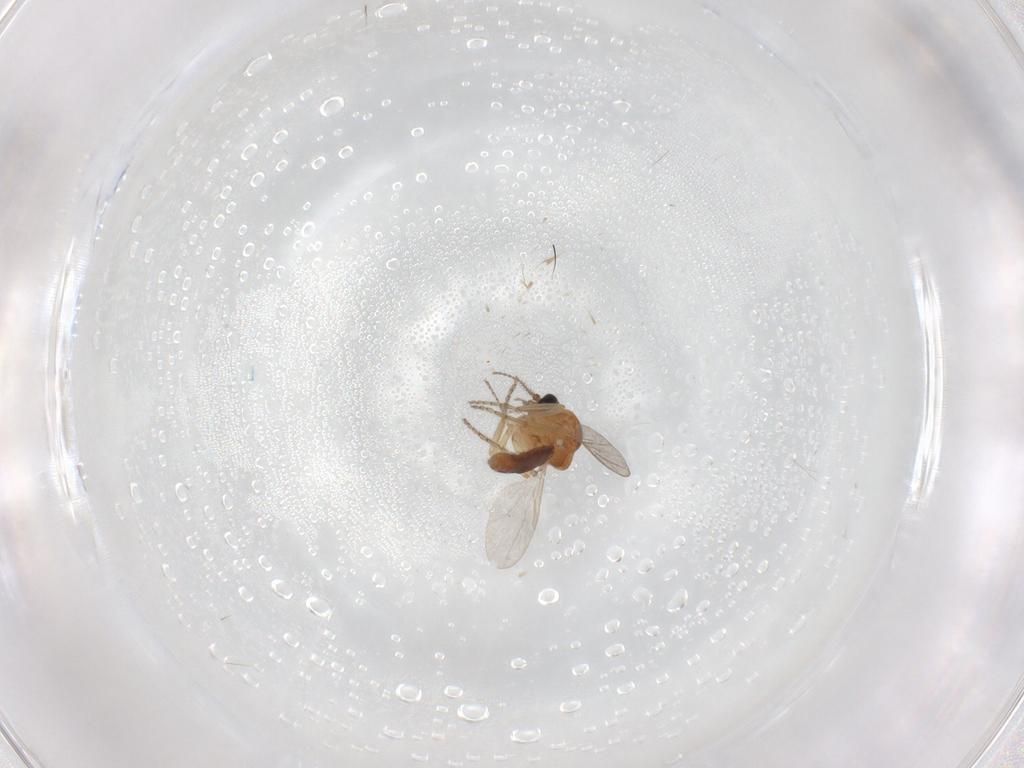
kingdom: Animalia
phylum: Arthropoda
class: Insecta
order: Diptera
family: Ceratopogonidae
